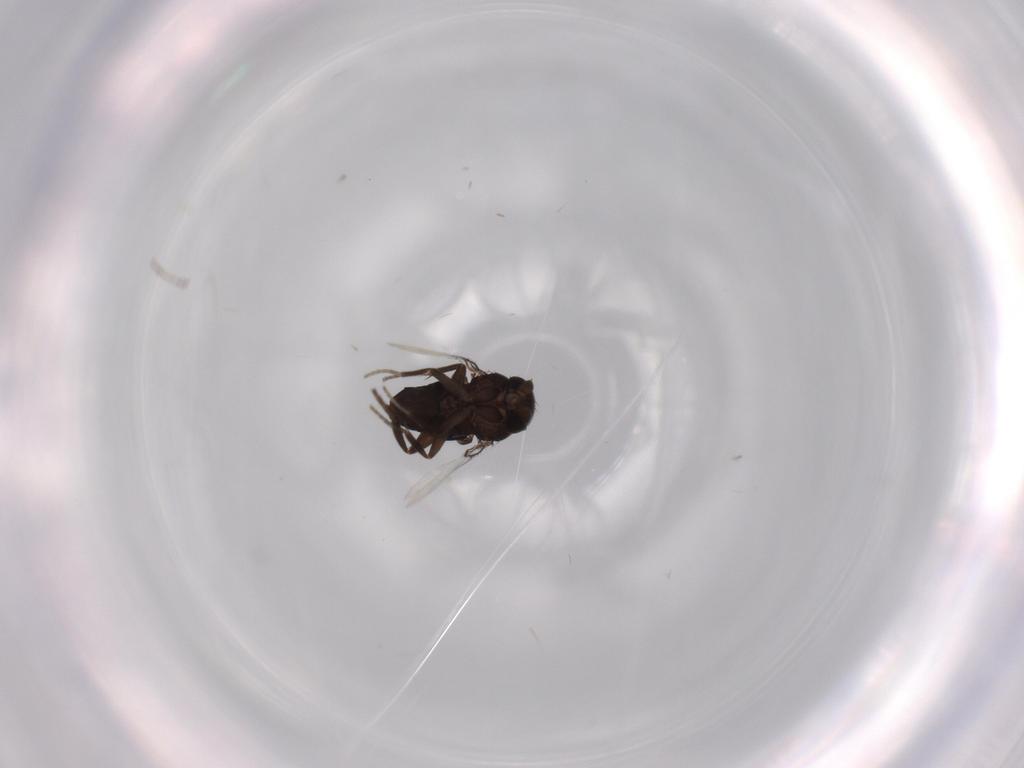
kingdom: Animalia
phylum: Arthropoda
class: Insecta
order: Diptera
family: Phoridae
